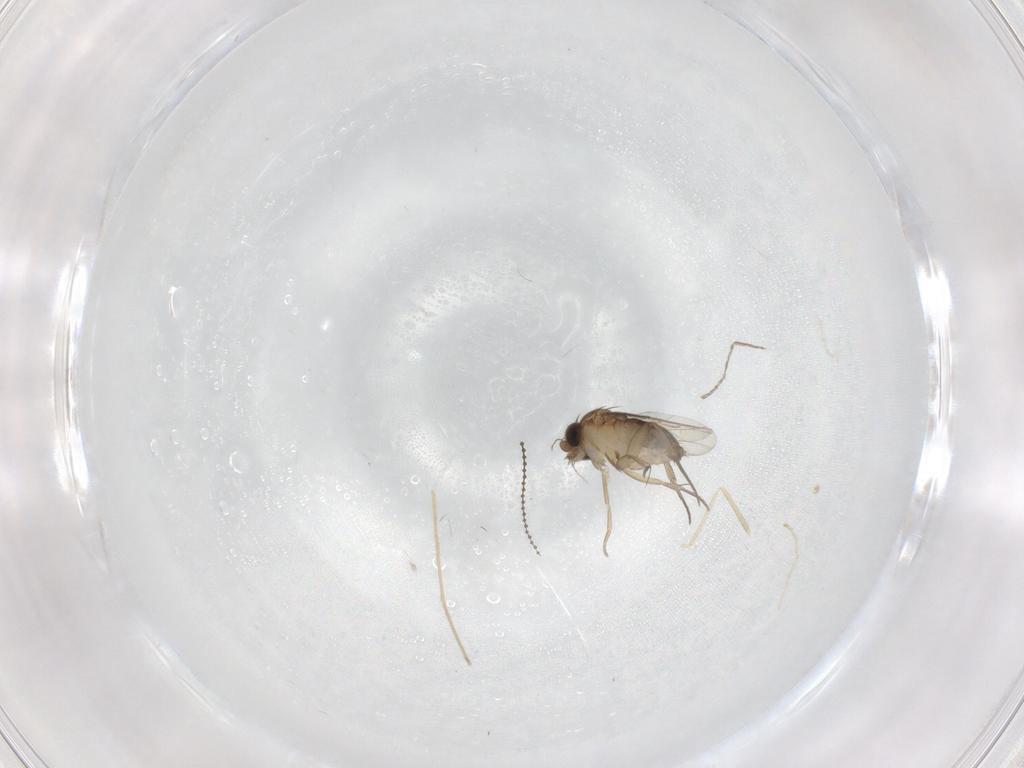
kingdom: Animalia
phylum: Arthropoda
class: Insecta
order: Diptera
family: Phoridae
